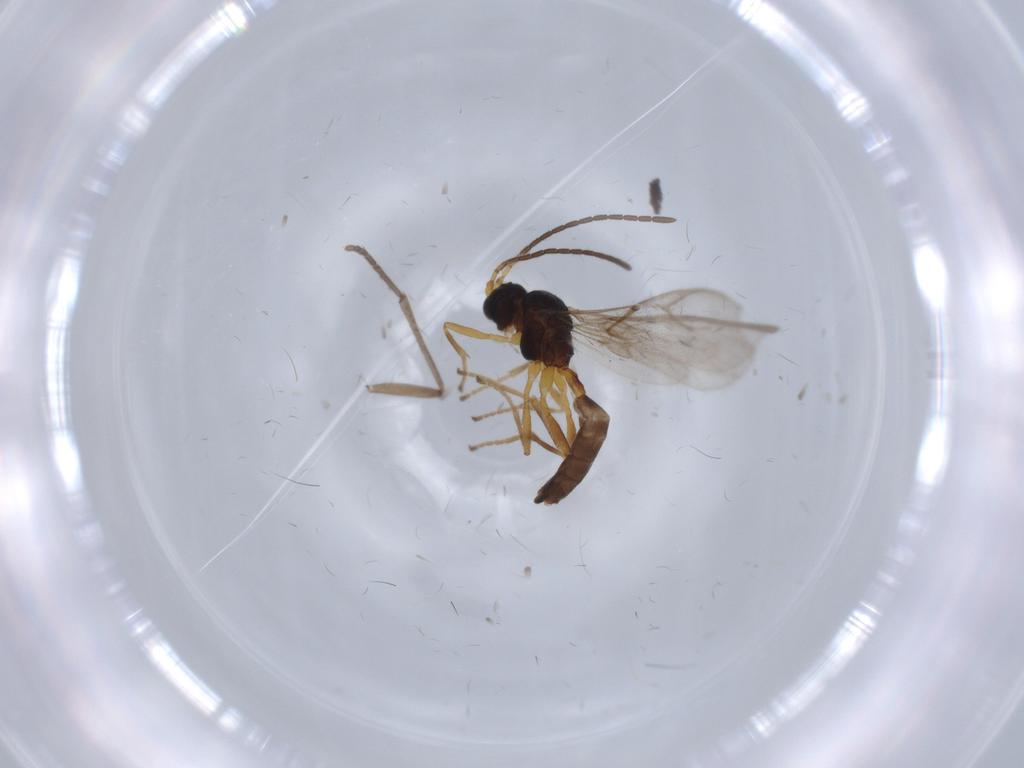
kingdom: Animalia
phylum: Arthropoda
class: Insecta
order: Hymenoptera
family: Braconidae
